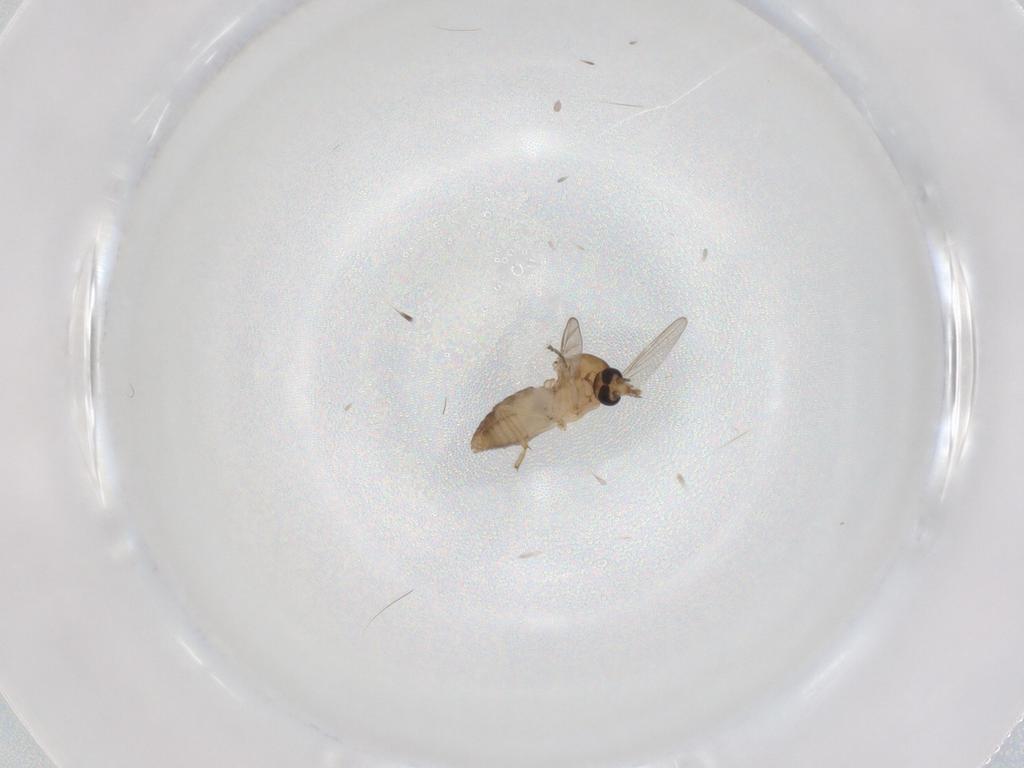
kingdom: Animalia
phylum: Arthropoda
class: Insecta
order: Diptera
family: Ceratopogonidae
